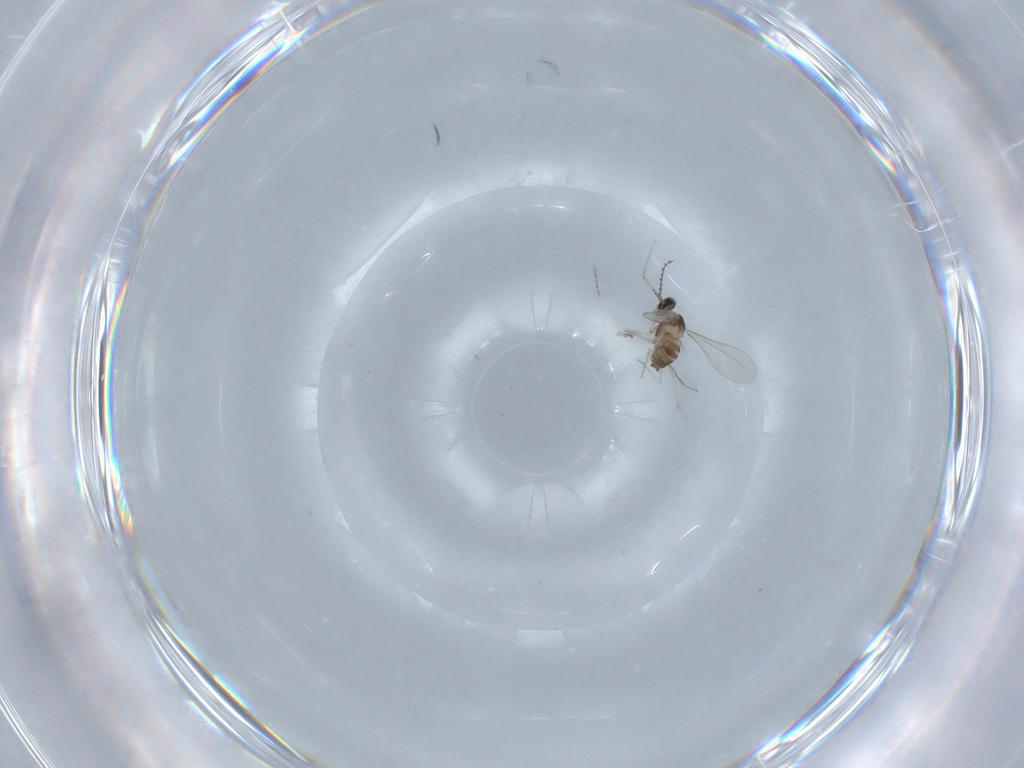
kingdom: Animalia
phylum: Arthropoda
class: Insecta
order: Diptera
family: Cecidomyiidae
